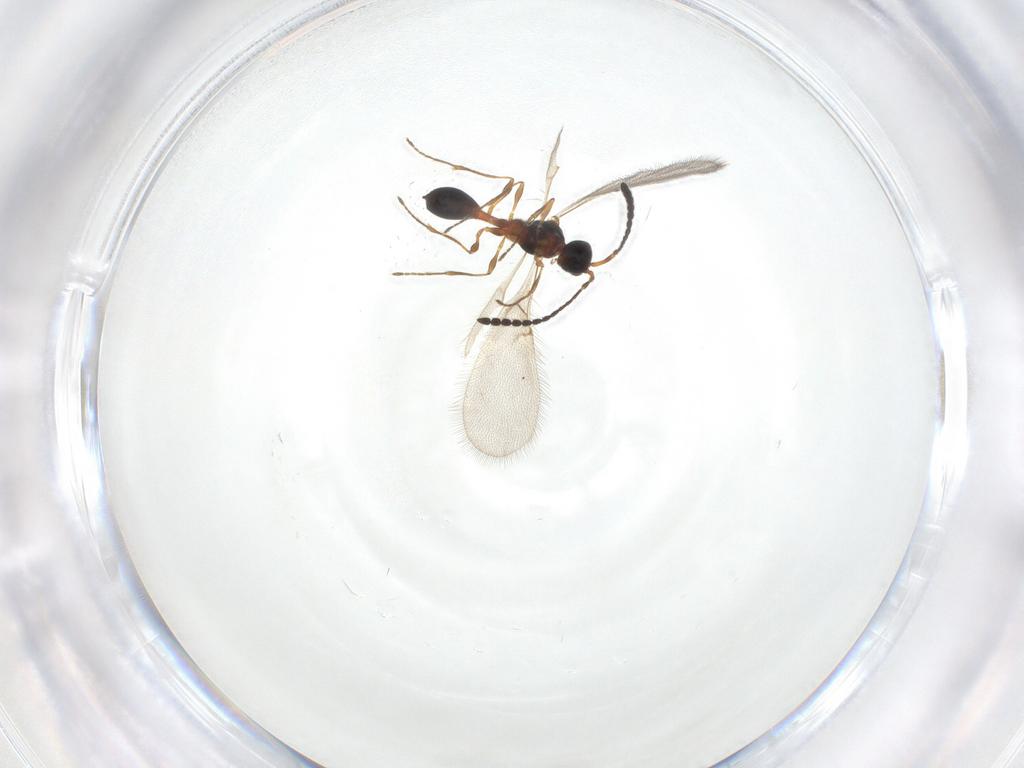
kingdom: Animalia
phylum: Arthropoda
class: Insecta
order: Hymenoptera
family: Diapriidae
